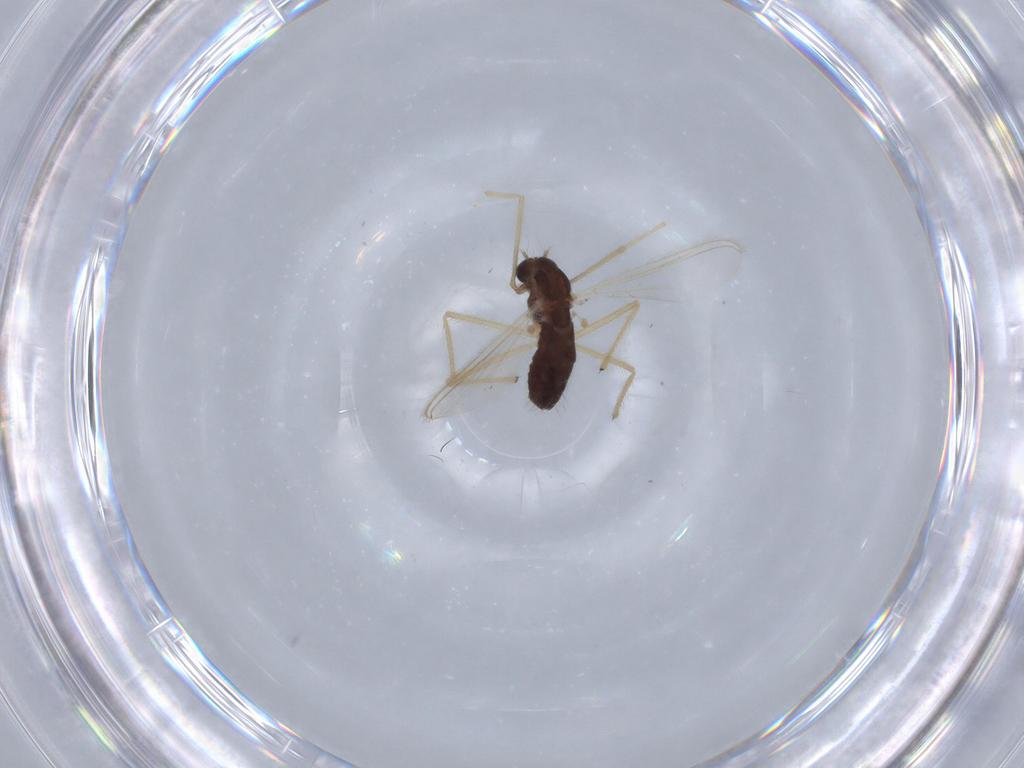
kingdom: Animalia
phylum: Arthropoda
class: Insecta
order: Diptera
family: Chironomidae
